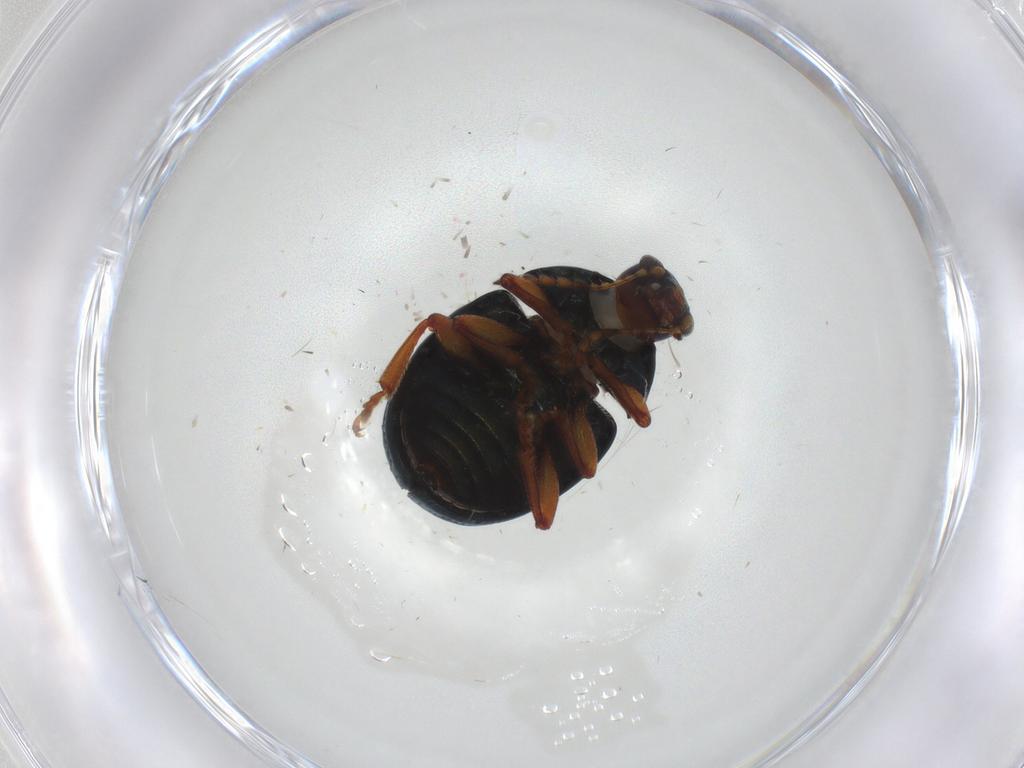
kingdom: Animalia
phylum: Arthropoda
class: Insecta
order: Coleoptera
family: Chrysomelidae
